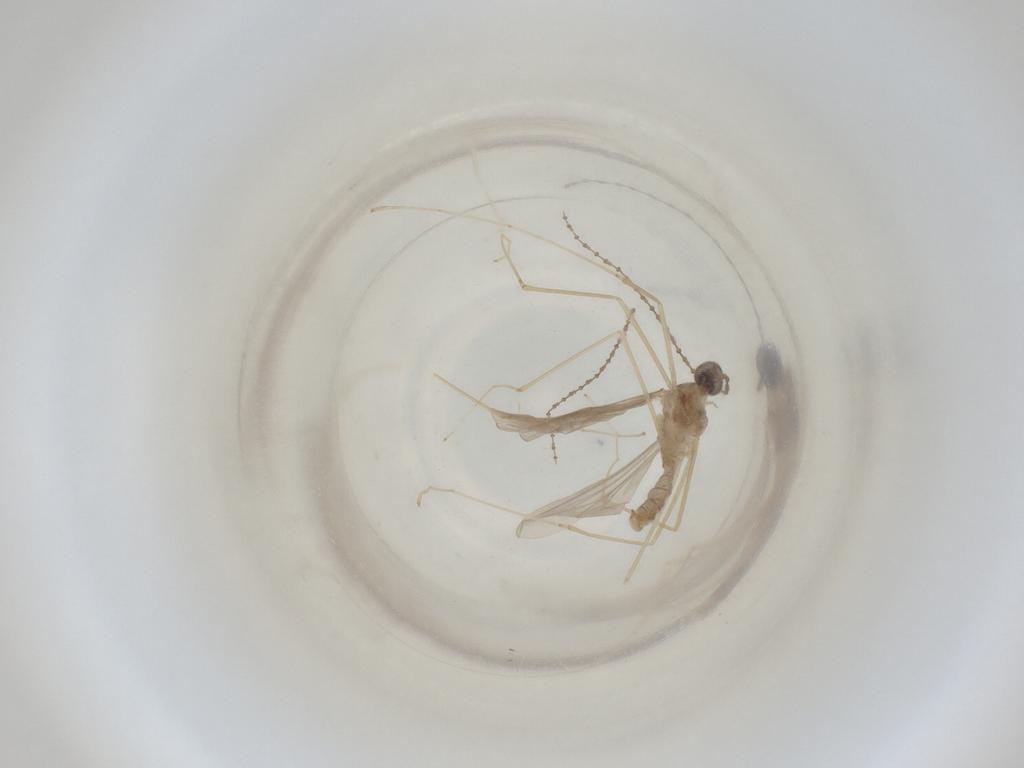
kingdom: Animalia
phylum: Arthropoda
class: Insecta
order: Diptera
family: Cecidomyiidae
